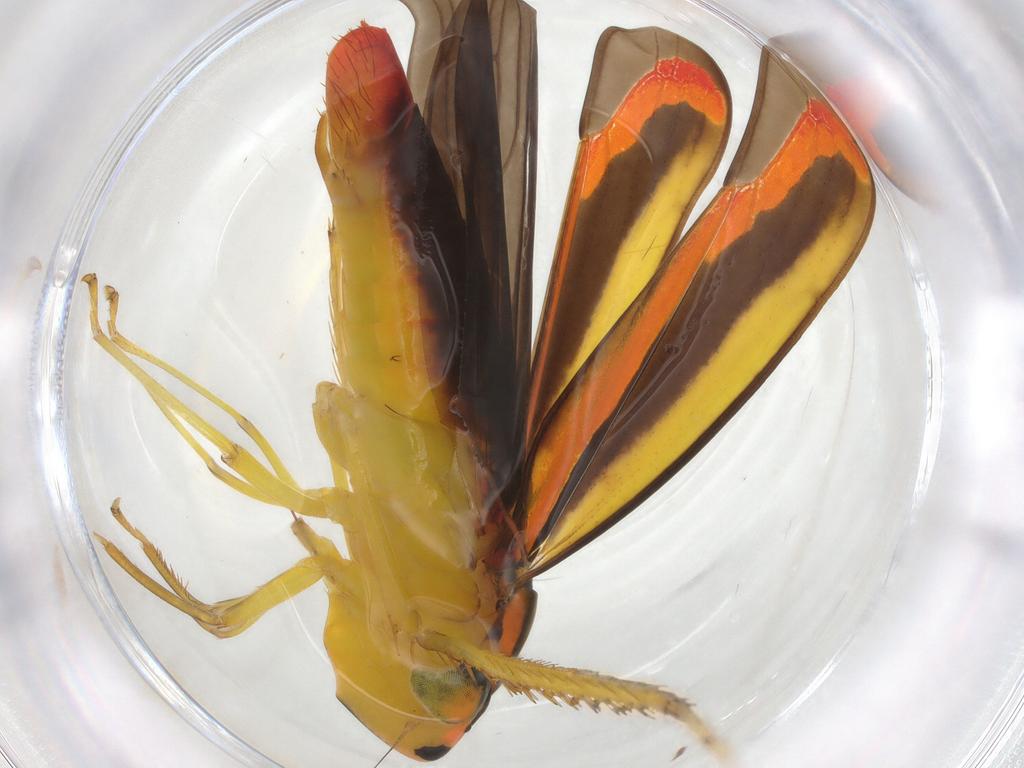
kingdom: Animalia
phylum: Arthropoda
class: Insecta
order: Hemiptera
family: Cicadellidae
